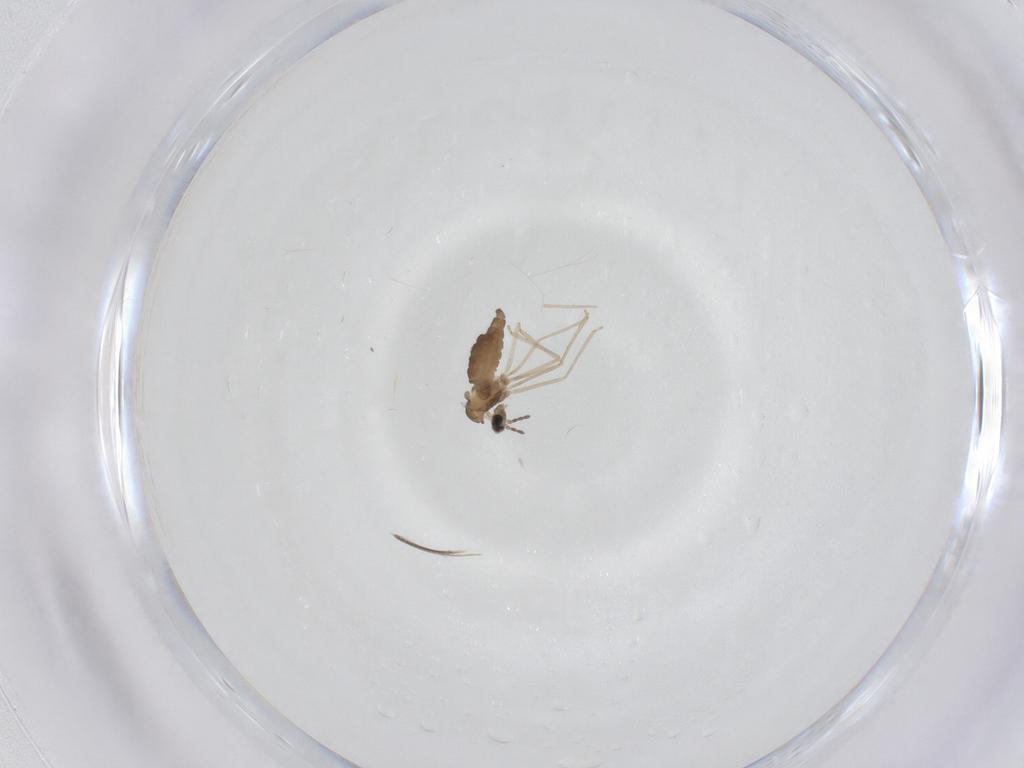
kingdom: Animalia
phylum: Arthropoda
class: Insecta
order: Diptera
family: Cecidomyiidae
